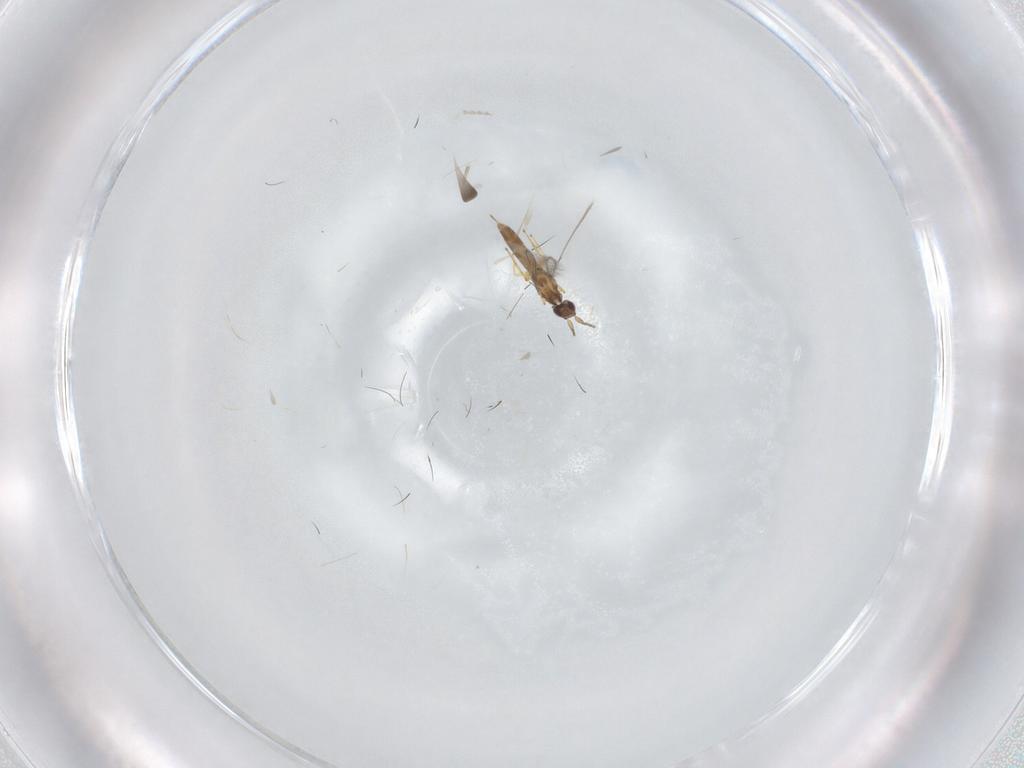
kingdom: Animalia
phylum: Arthropoda
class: Insecta
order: Hymenoptera
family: Mymaridae
